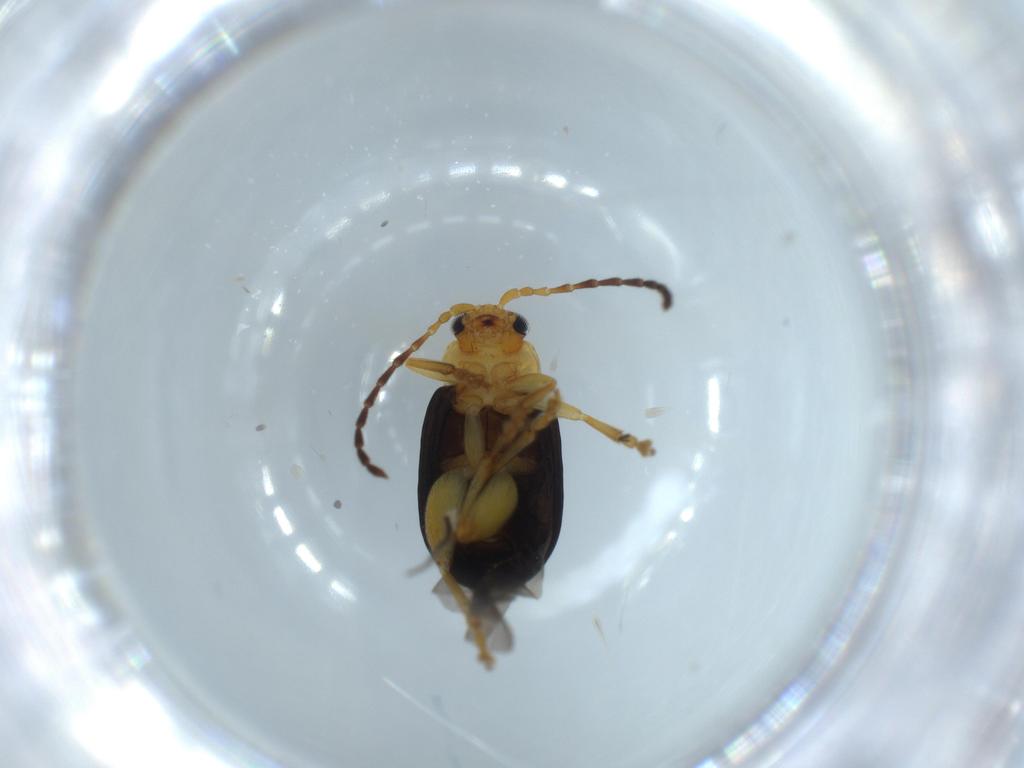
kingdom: Animalia
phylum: Arthropoda
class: Insecta
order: Coleoptera
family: Chrysomelidae
